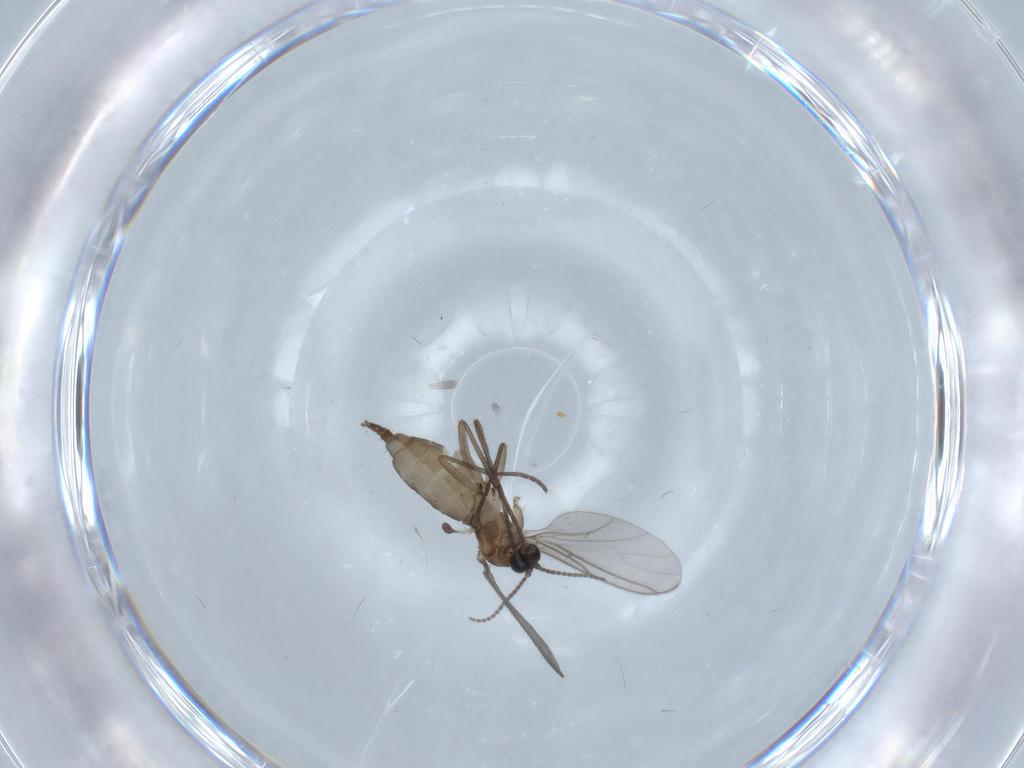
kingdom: Animalia
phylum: Arthropoda
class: Insecta
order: Diptera
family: Sciaridae
